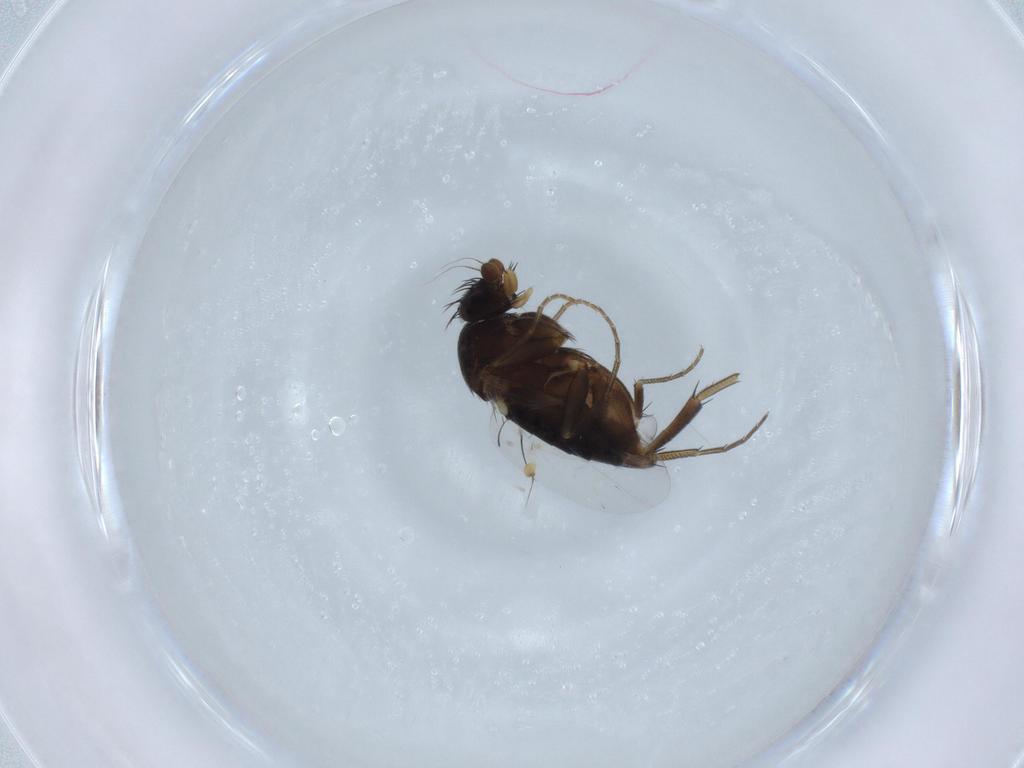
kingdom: Animalia
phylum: Arthropoda
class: Insecta
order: Diptera
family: Phoridae
